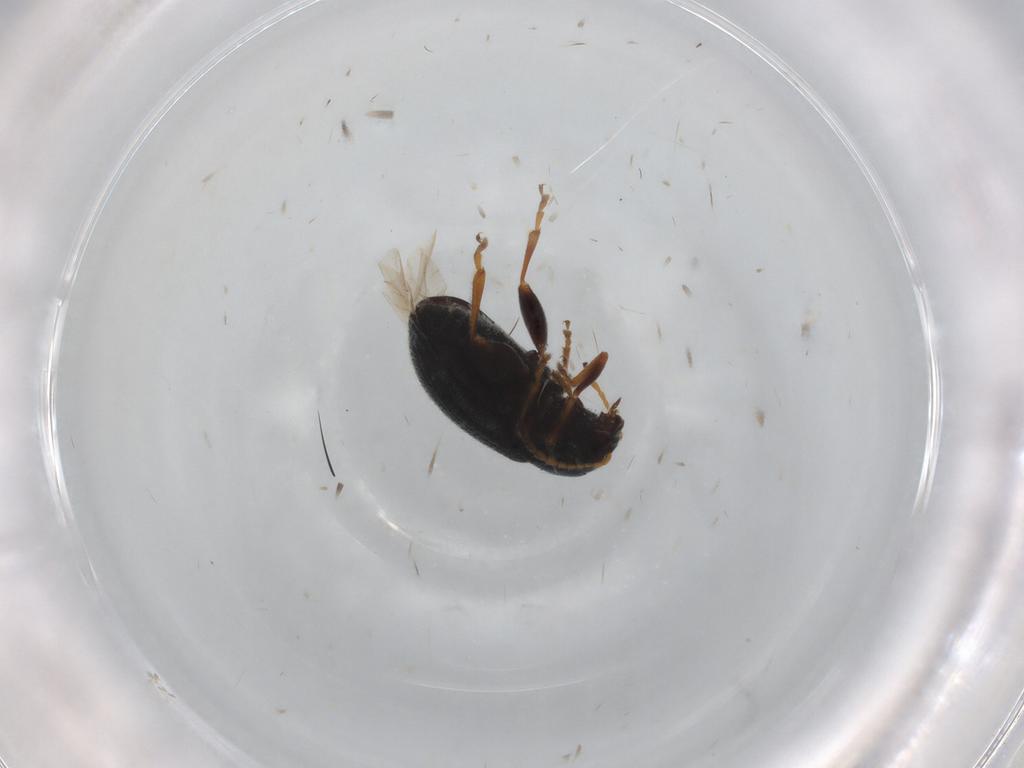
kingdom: Animalia
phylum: Arthropoda
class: Insecta
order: Coleoptera
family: Chrysomelidae
